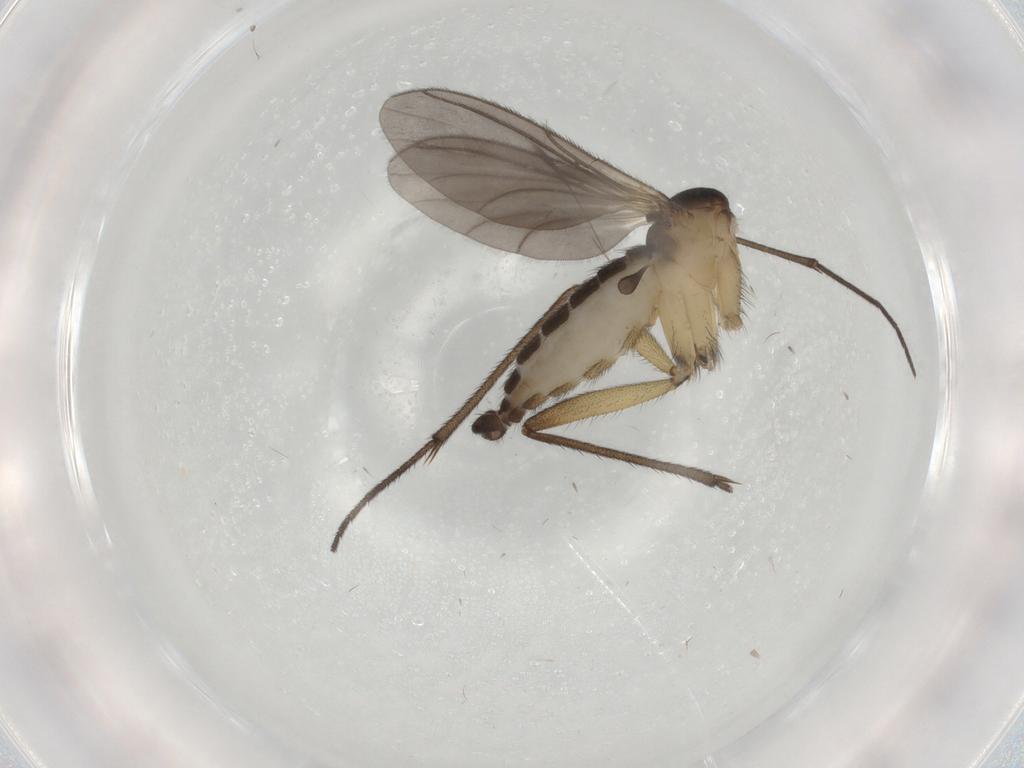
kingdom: Animalia
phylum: Arthropoda
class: Insecta
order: Diptera
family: Sciaridae
